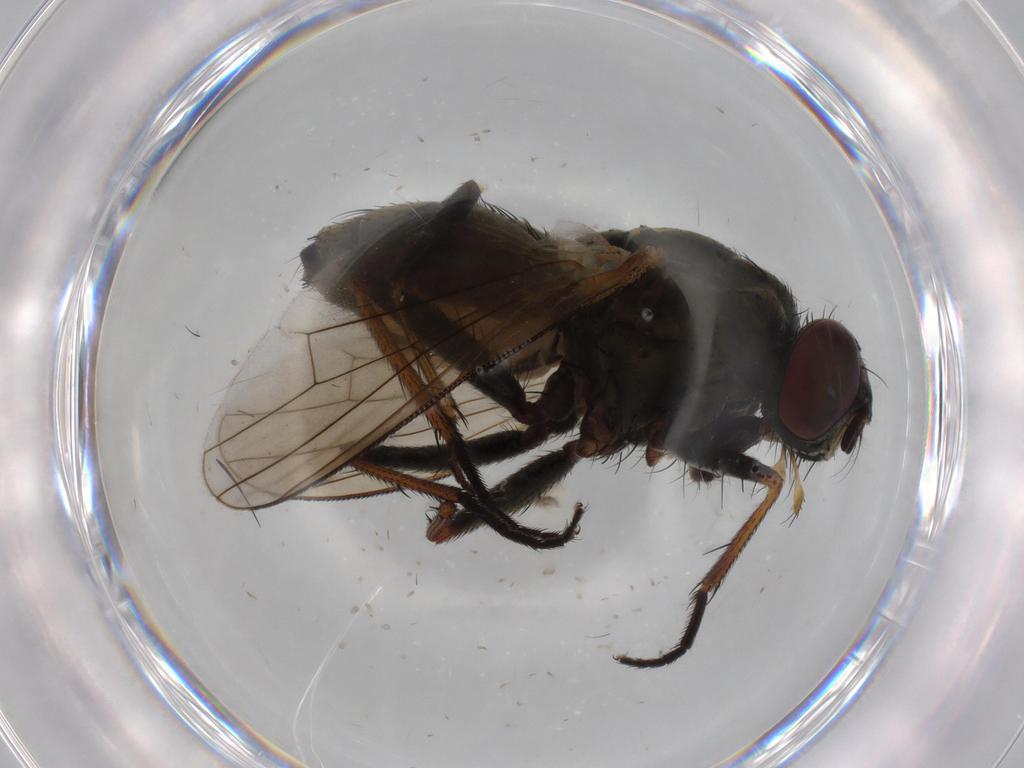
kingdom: Animalia
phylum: Arthropoda
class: Insecta
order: Diptera
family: Muscidae
